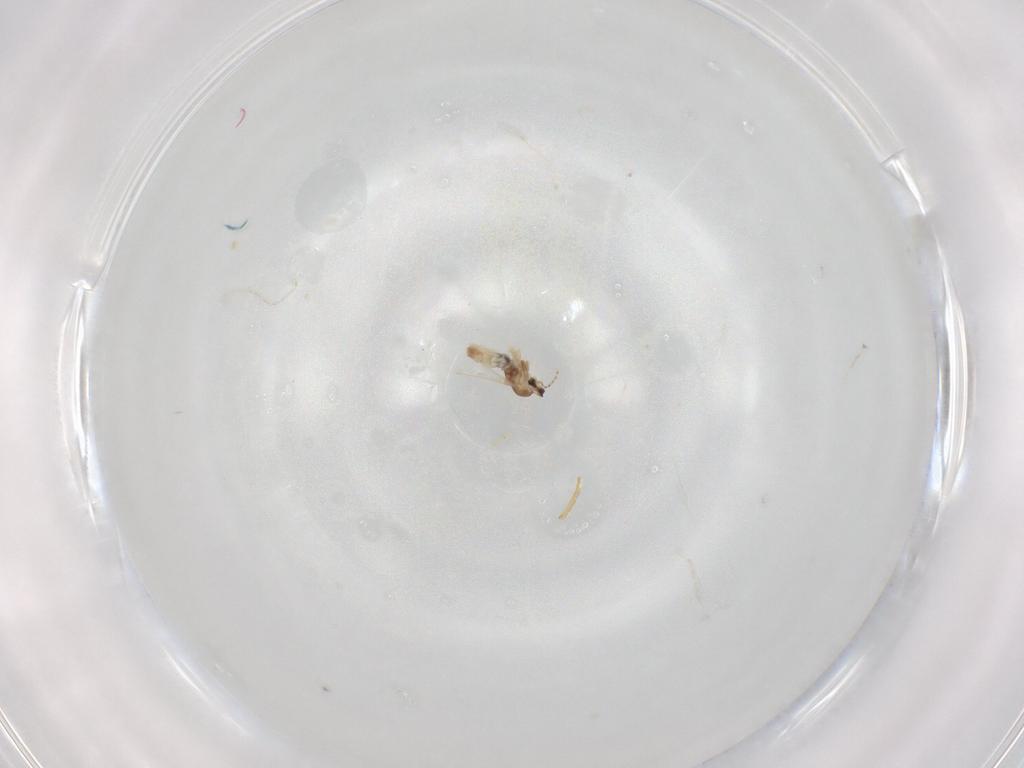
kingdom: Animalia
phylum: Arthropoda
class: Insecta
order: Diptera
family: Cecidomyiidae
